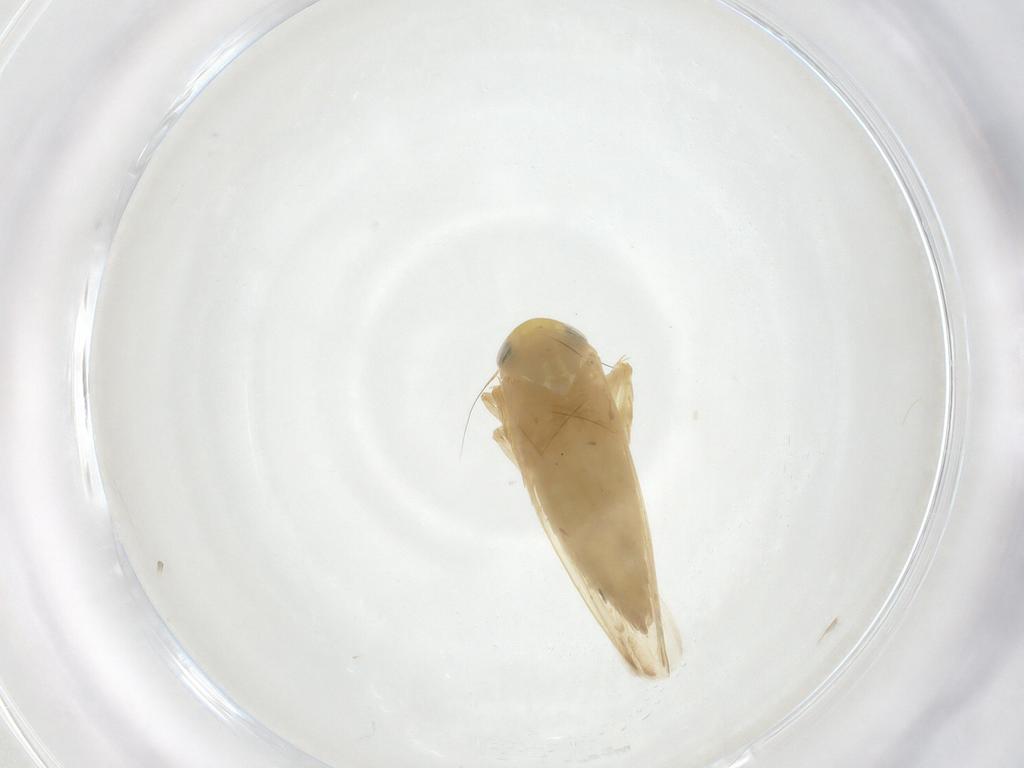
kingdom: Animalia
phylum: Arthropoda
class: Insecta
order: Hemiptera
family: Cicadellidae
